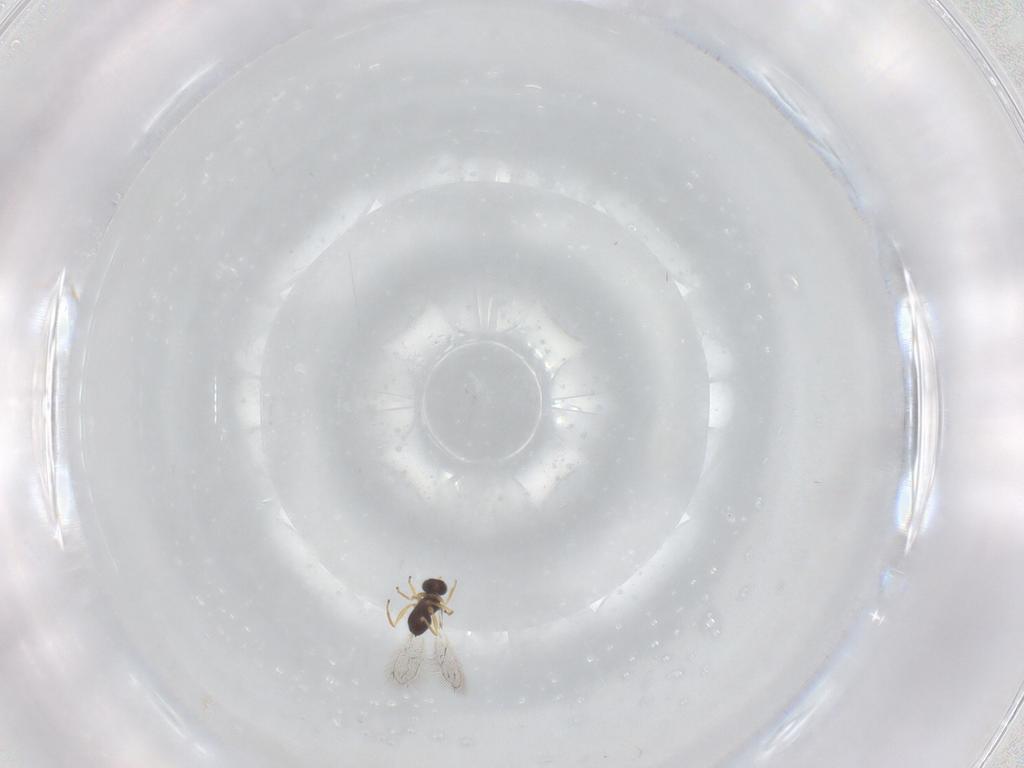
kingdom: Animalia
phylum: Arthropoda
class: Insecta
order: Hymenoptera
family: Mymaridae
